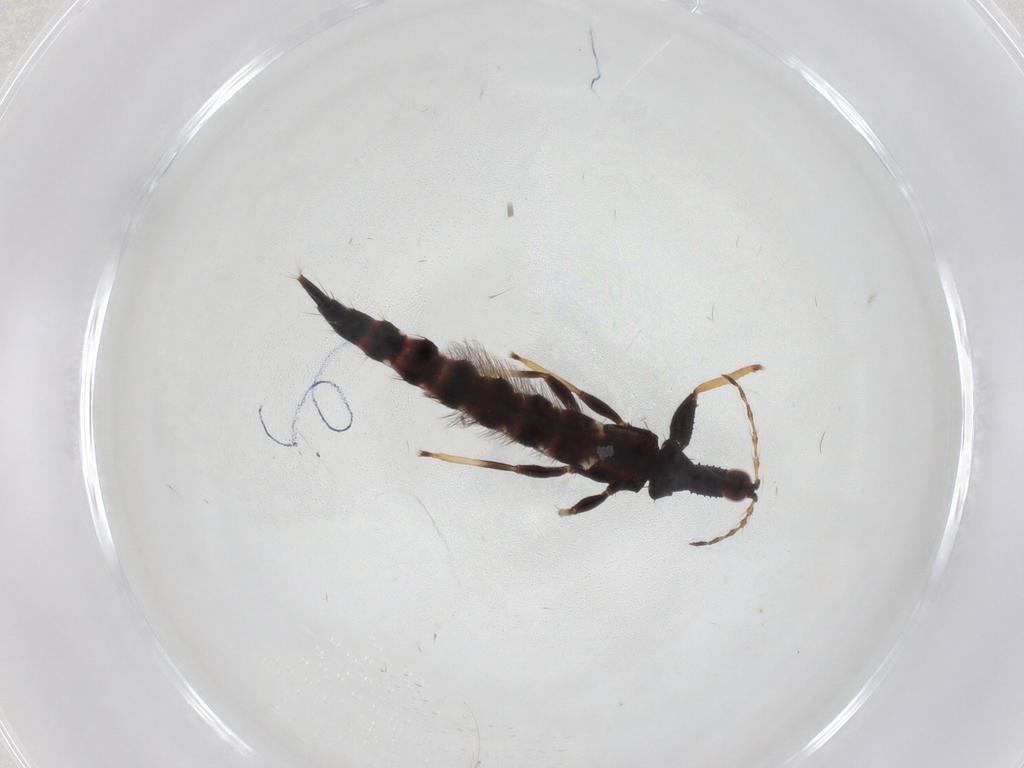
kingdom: Animalia
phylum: Arthropoda
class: Insecta
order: Thysanoptera
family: Phlaeothripidae
